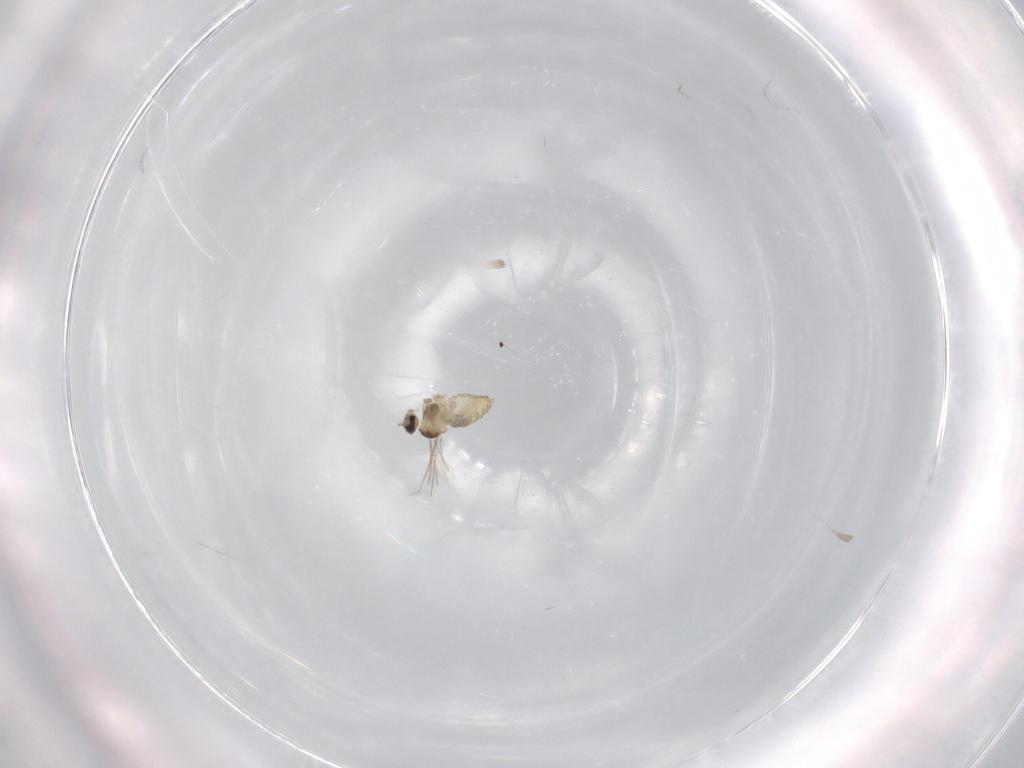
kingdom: Animalia
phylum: Arthropoda
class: Insecta
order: Diptera
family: Cecidomyiidae
